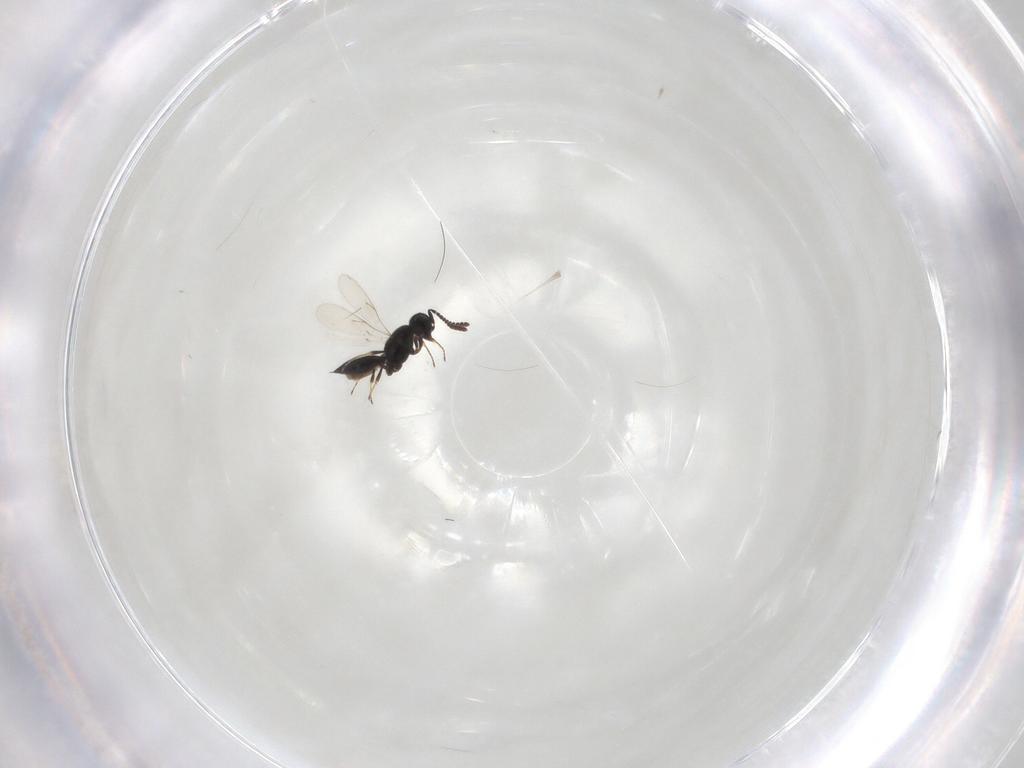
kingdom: Animalia
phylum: Arthropoda
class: Insecta
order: Hymenoptera
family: Scelionidae
